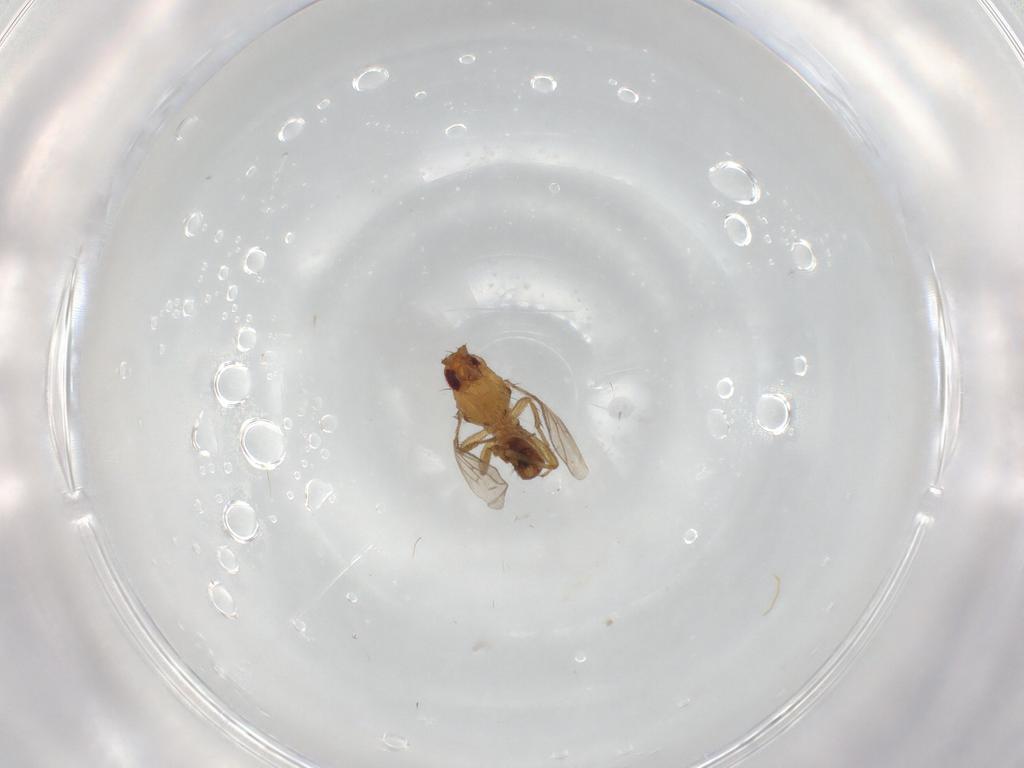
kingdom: Animalia
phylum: Arthropoda
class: Insecta
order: Diptera
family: Sphaeroceridae
